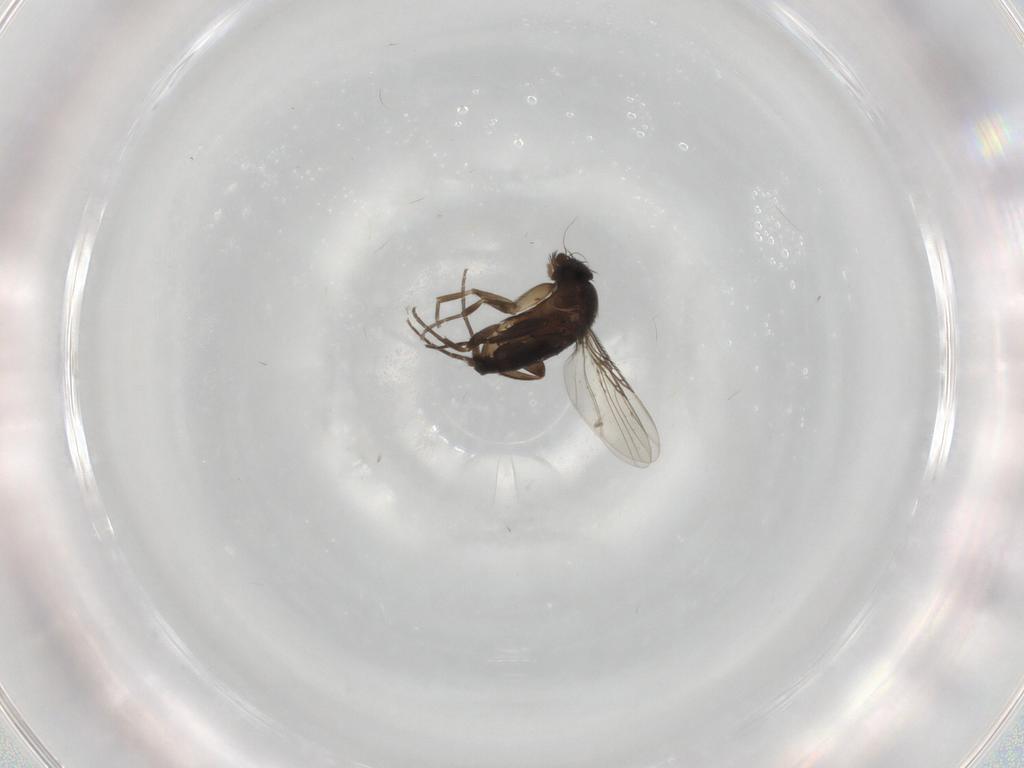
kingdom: Animalia
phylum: Arthropoda
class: Insecta
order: Diptera
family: Phoridae
